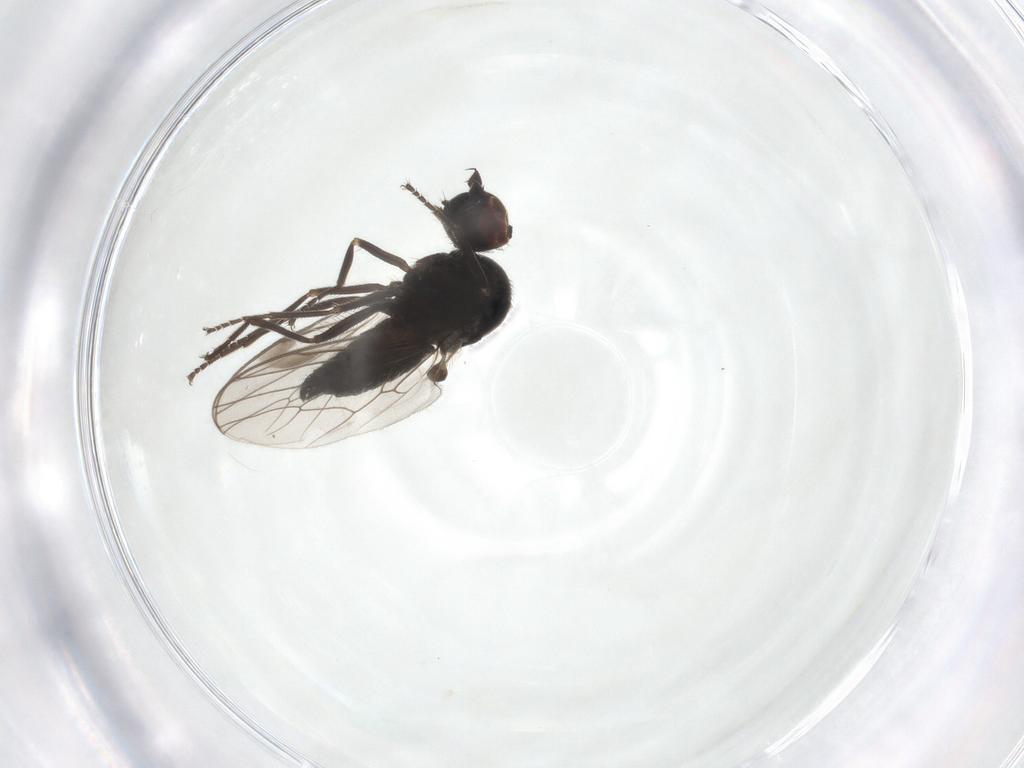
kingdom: Animalia
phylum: Arthropoda
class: Insecta
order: Diptera
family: Hybotidae
